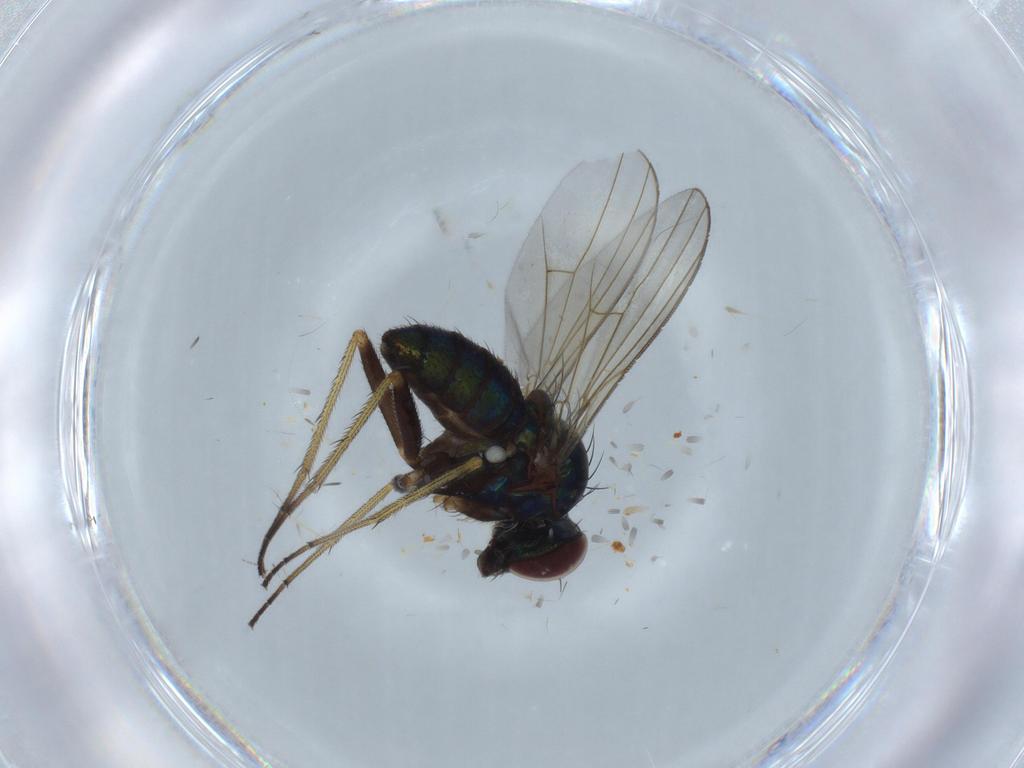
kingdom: Animalia
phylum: Arthropoda
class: Insecta
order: Diptera
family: Dolichopodidae
